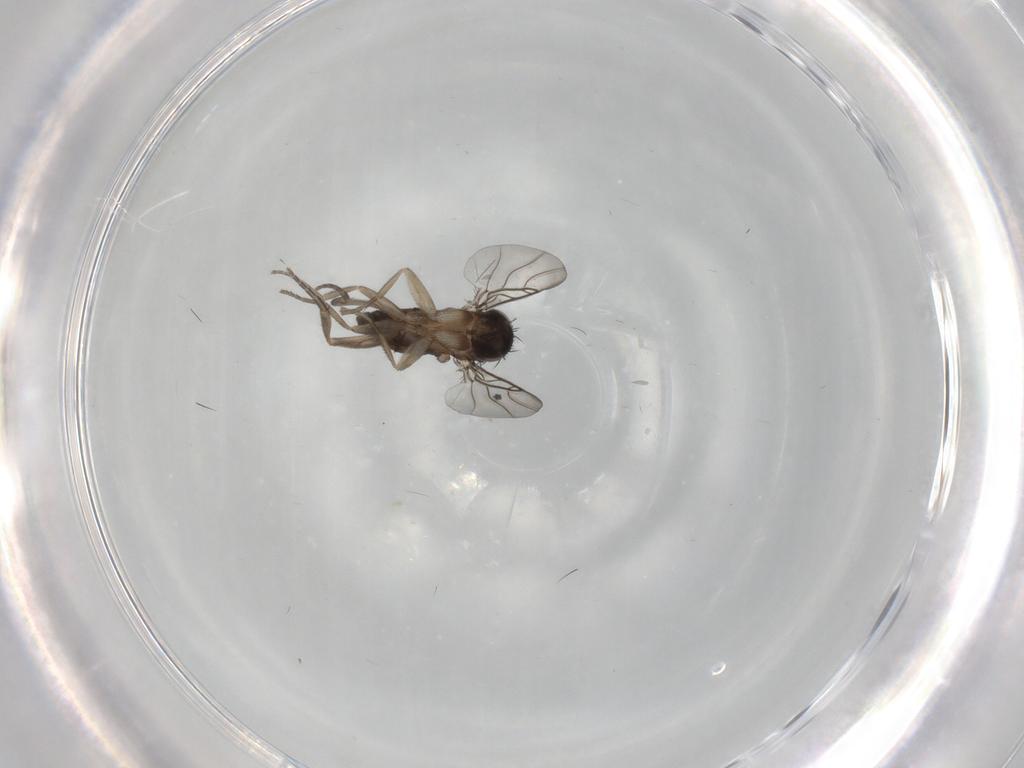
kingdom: Animalia
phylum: Arthropoda
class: Insecta
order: Diptera
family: Phoridae
